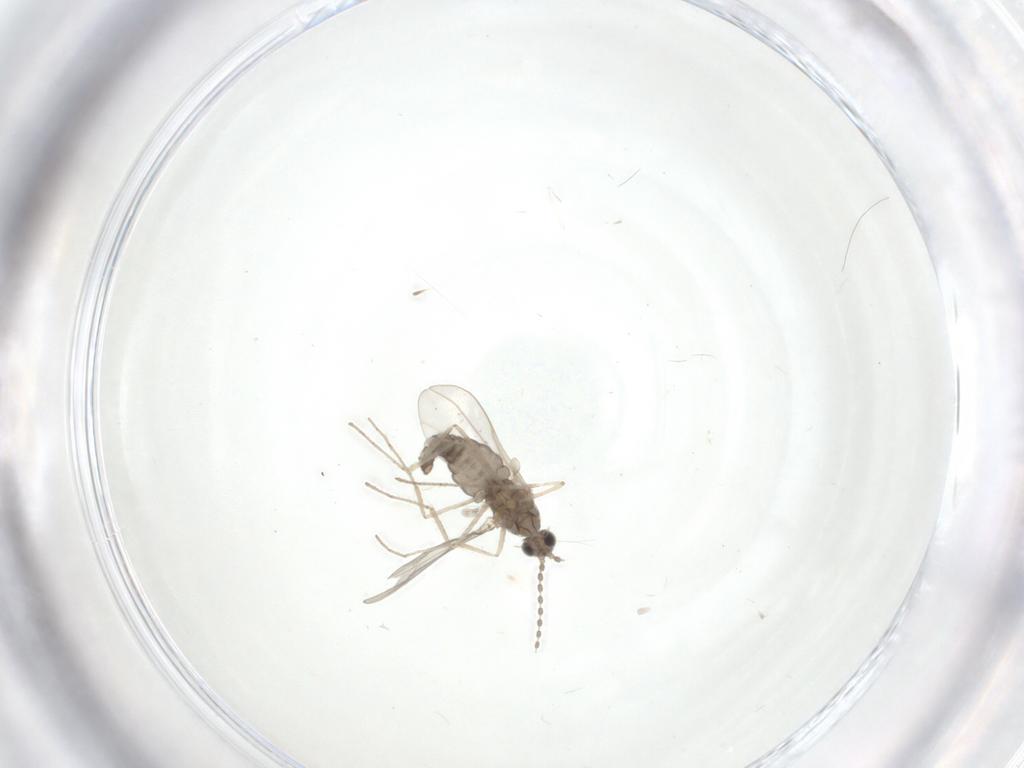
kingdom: Animalia
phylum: Arthropoda
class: Insecta
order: Diptera
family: Cecidomyiidae
